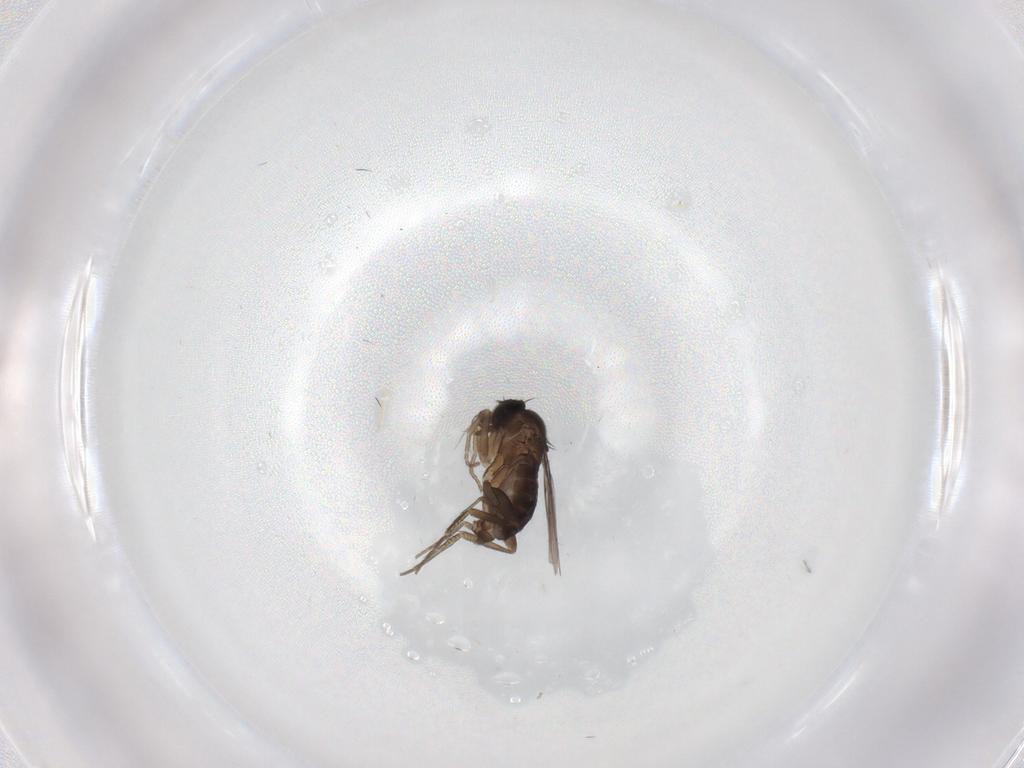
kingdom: Animalia
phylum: Arthropoda
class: Insecta
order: Diptera
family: Phoridae
